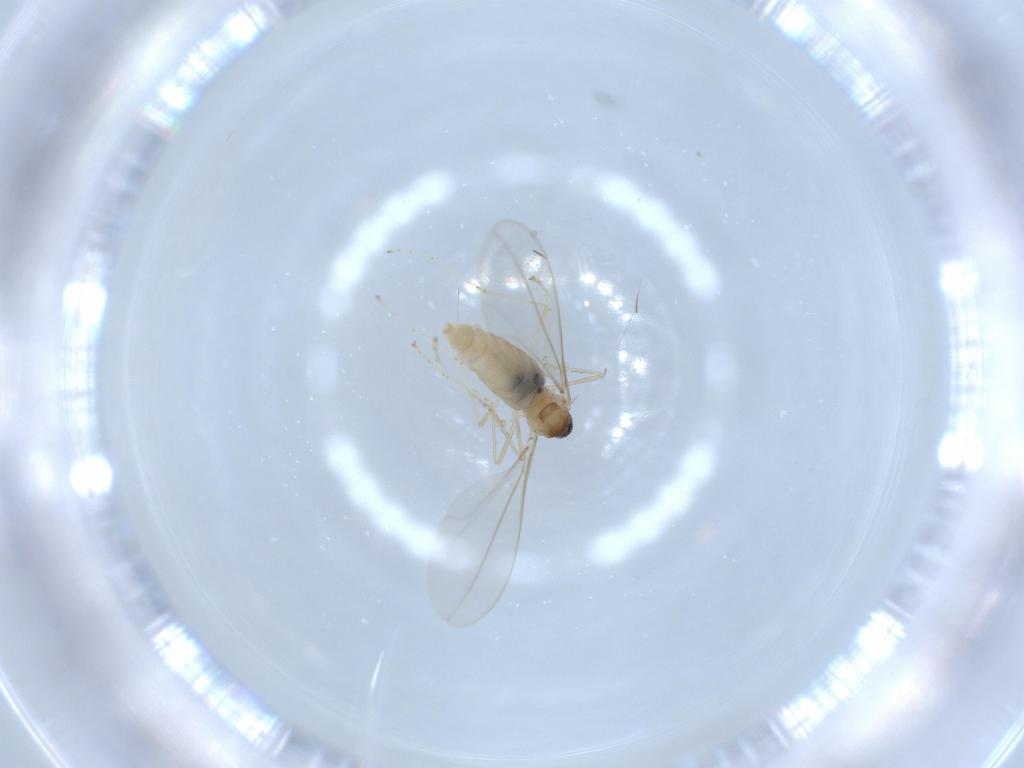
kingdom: Animalia
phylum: Arthropoda
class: Insecta
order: Diptera
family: Cecidomyiidae
